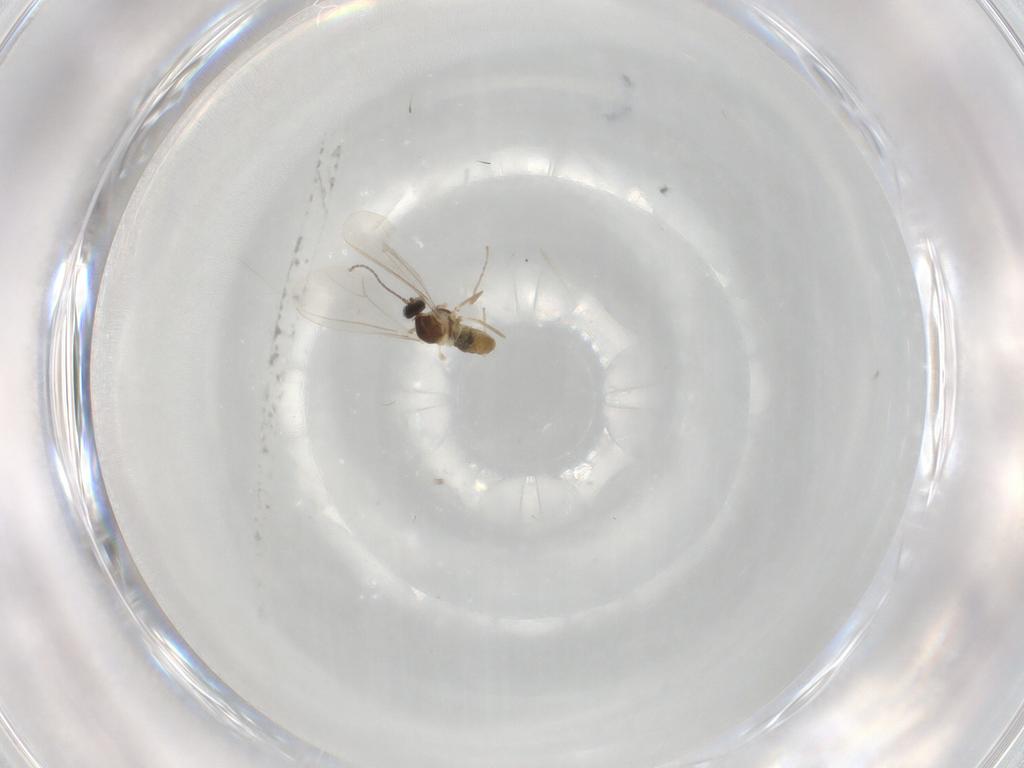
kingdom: Animalia
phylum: Arthropoda
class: Insecta
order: Diptera
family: Cecidomyiidae
